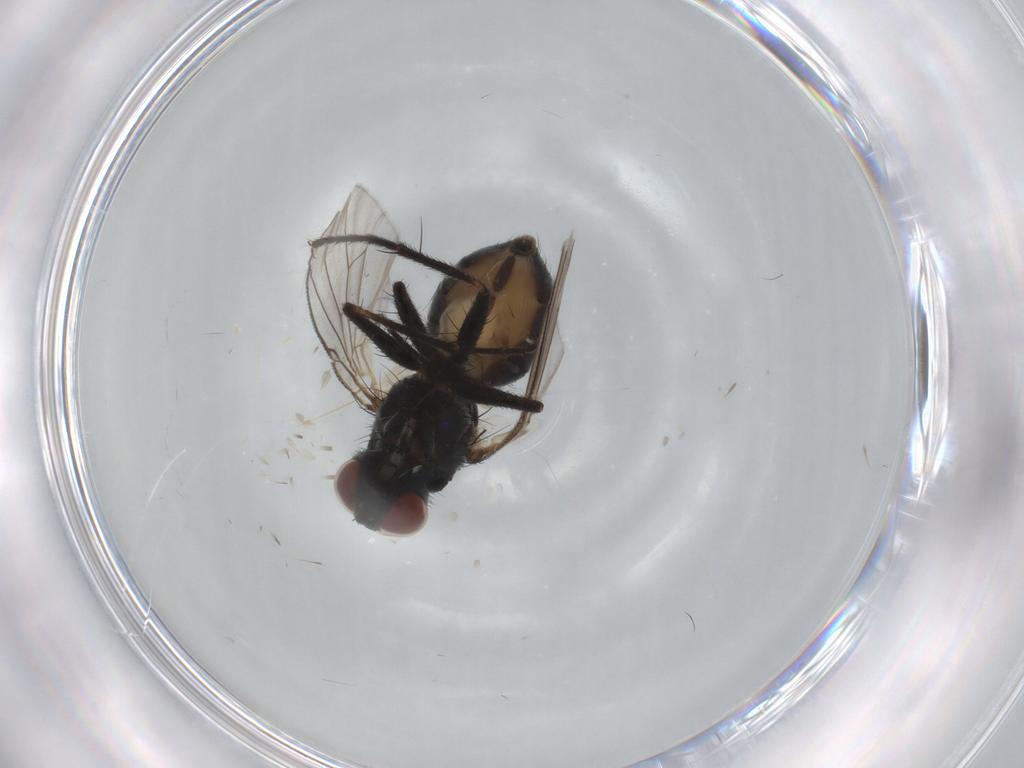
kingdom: Animalia
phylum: Arthropoda
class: Insecta
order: Diptera
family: Muscidae
